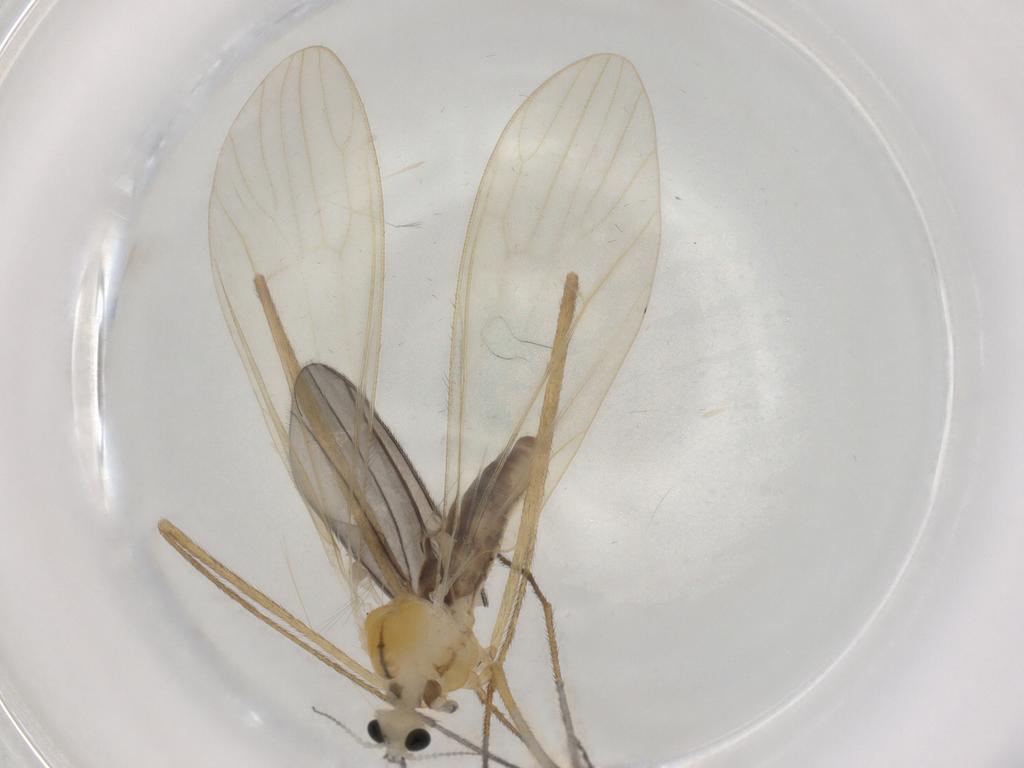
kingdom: Animalia
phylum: Arthropoda
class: Insecta
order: Diptera
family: Limoniidae
